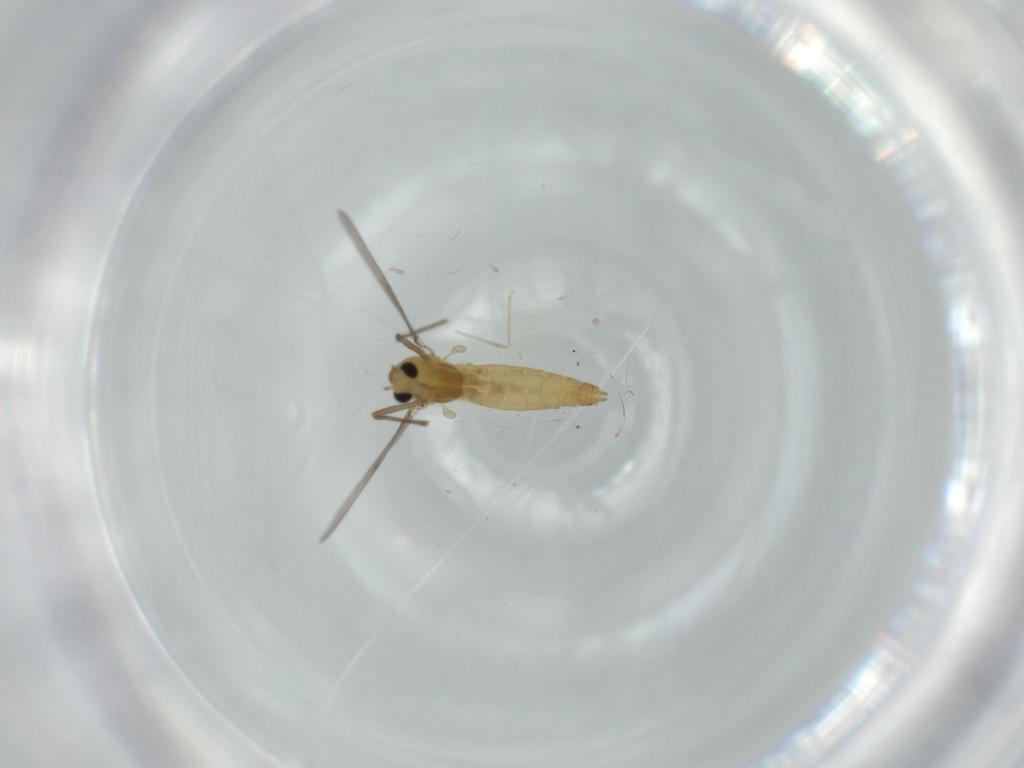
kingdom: Animalia
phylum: Arthropoda
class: Insecta
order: Diptera
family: Chironomidae
